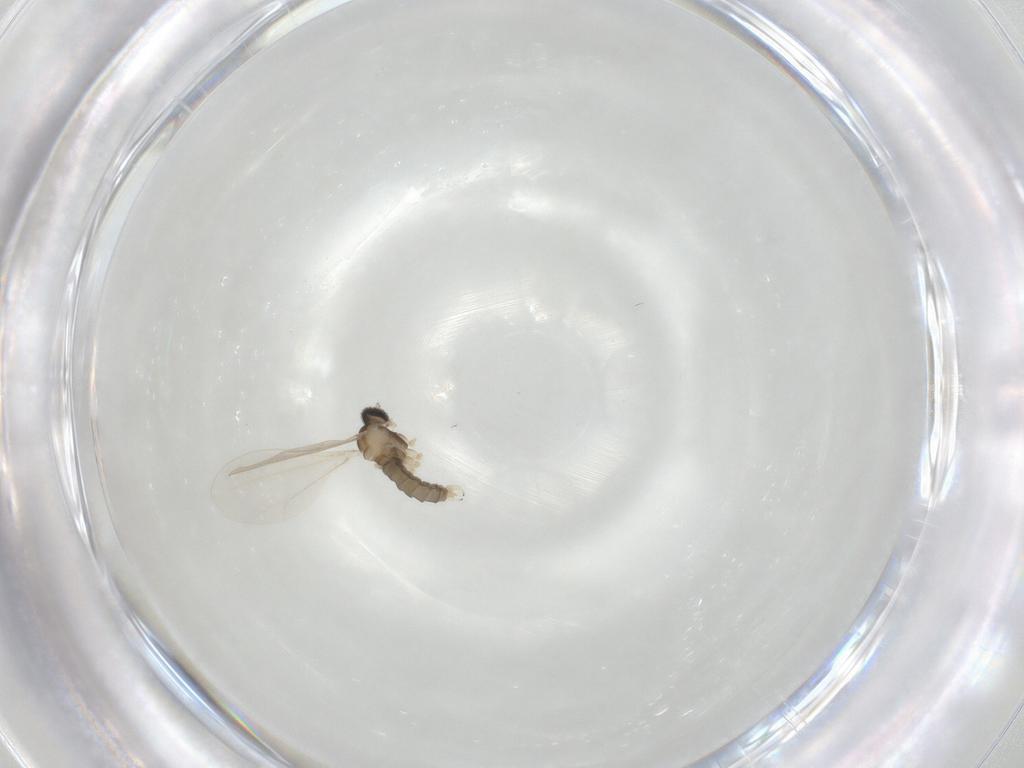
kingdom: Animalia
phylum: Arthropoda
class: Insecta
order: Diptera
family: Cecidomyiidae
